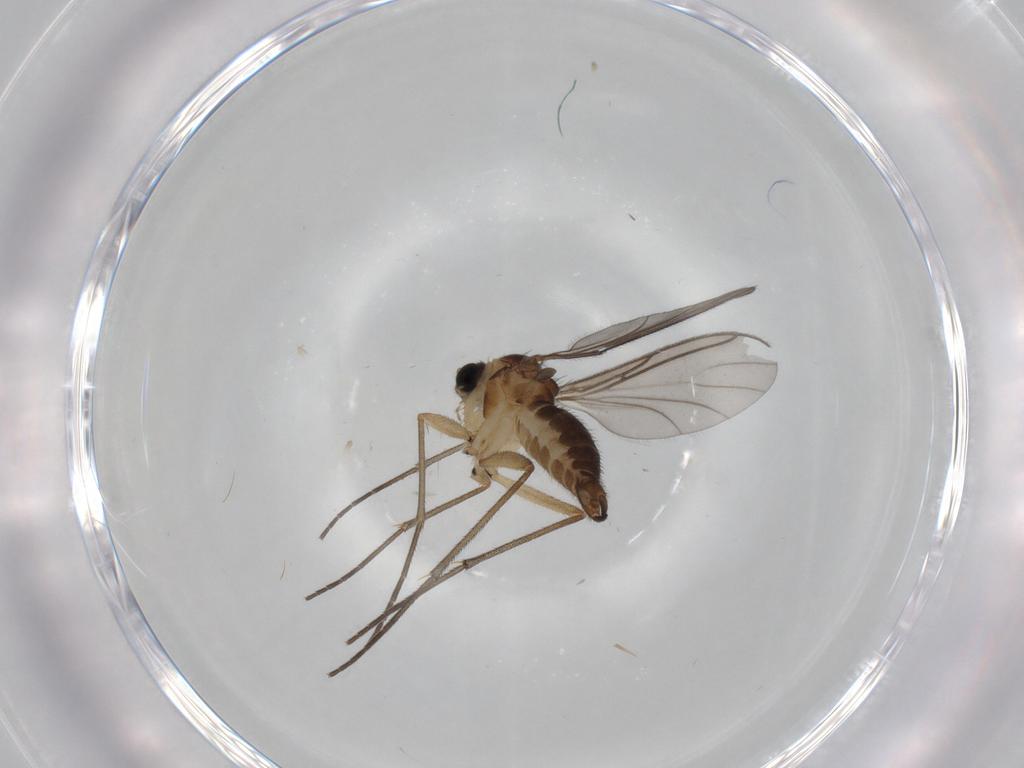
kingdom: Animalia
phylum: Arthropoda
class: Insecta
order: Diptera
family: Sciaridae
